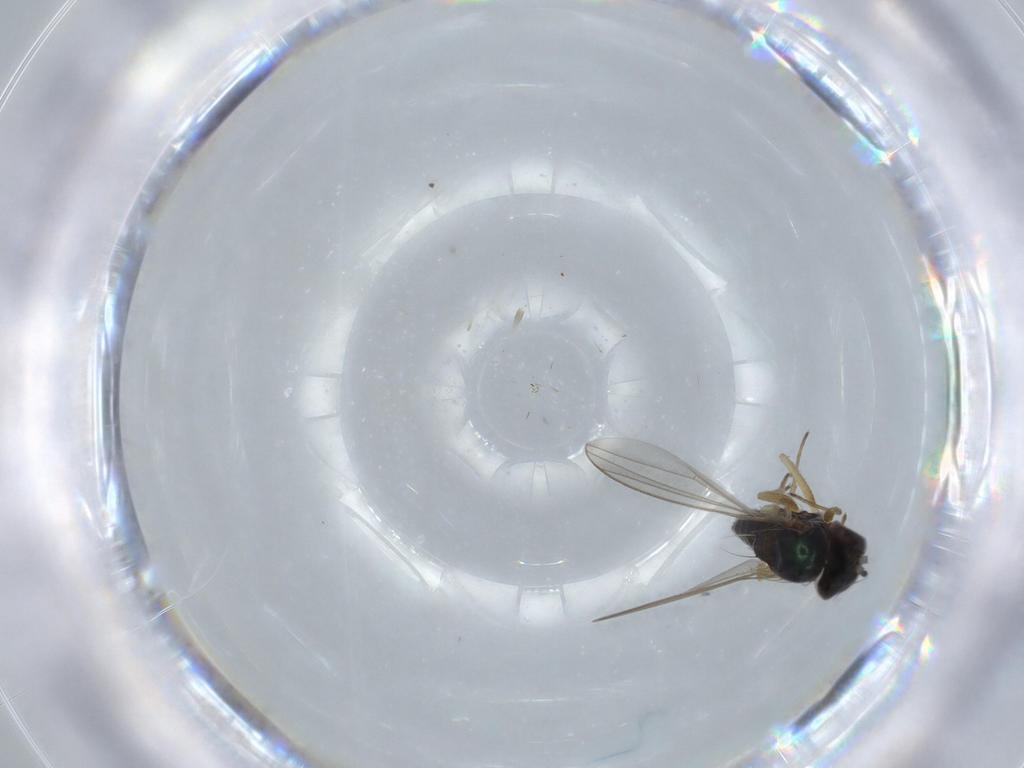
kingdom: Animalia
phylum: Arthropoda
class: Insecta
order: Diptera
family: Dolichopodidae
